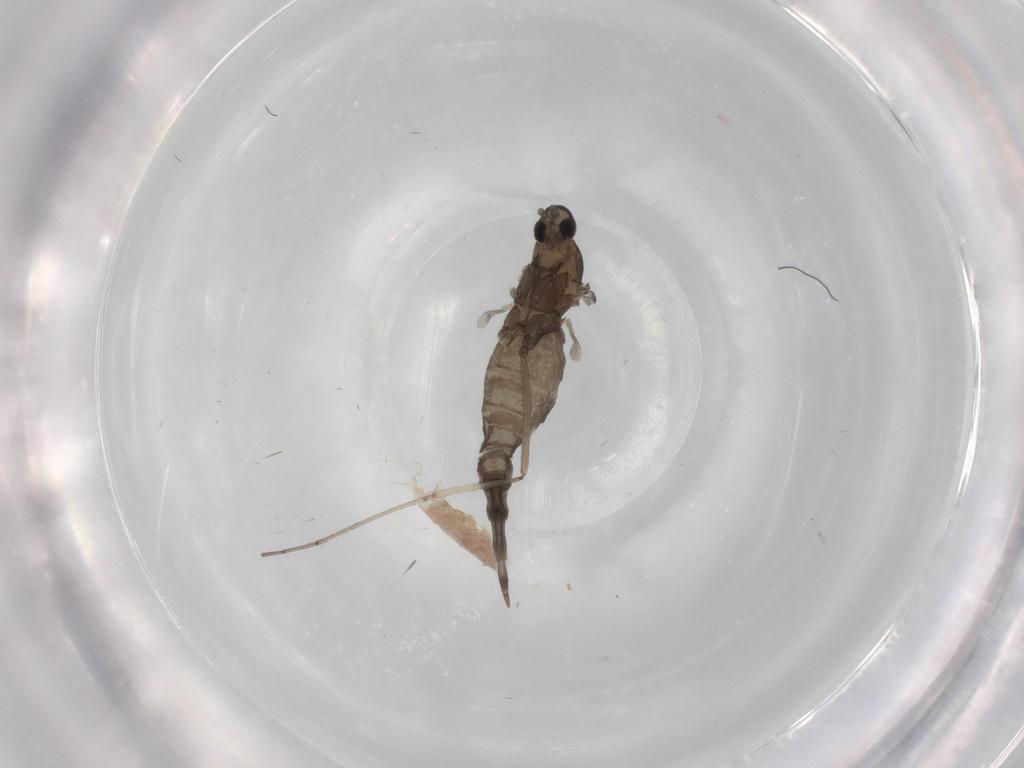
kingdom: Animalia
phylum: Arthropoda
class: Insecta
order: Diptera
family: Cecidomyiidae
